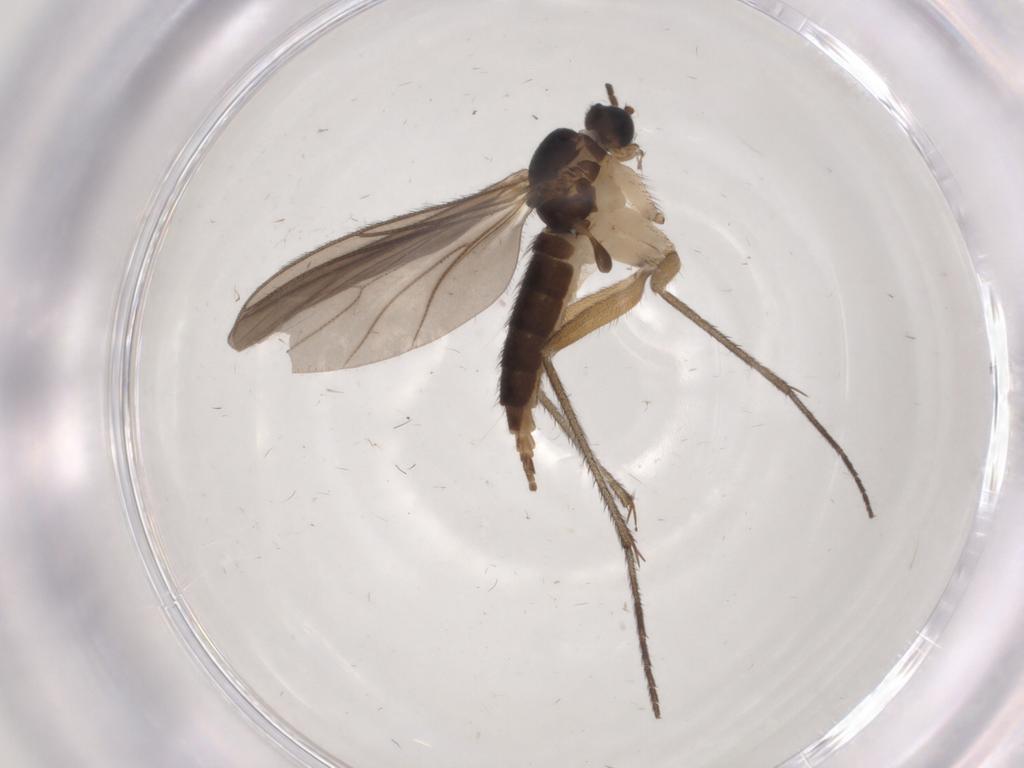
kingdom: Animalia
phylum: Arthropoda
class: Insecta
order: Diptera
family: Sciaridae
